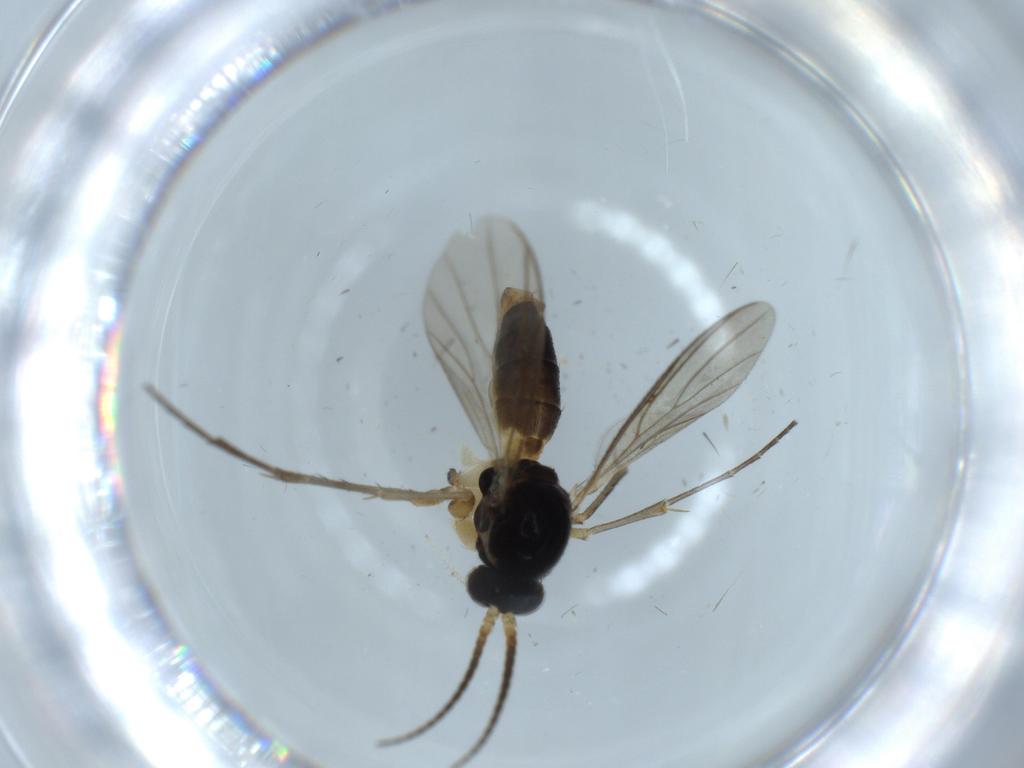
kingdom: Animalia
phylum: Arthropoda
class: Insecta
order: Diptera
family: Cecidomyiidae
